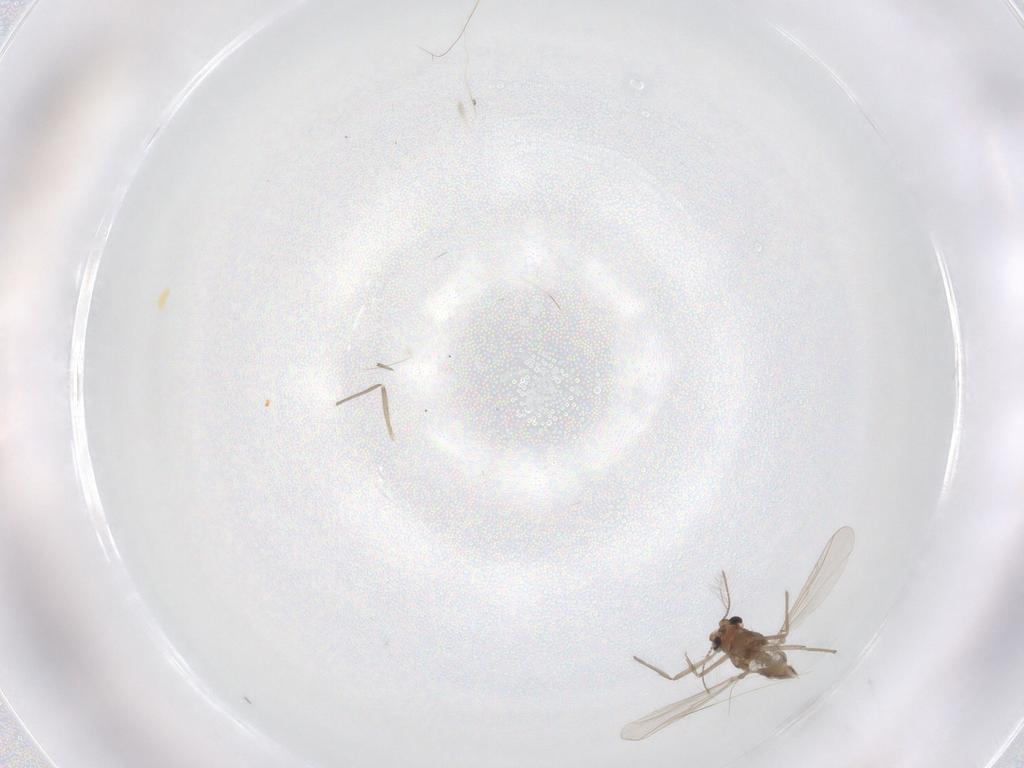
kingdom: Animalia
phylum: Arthropoda
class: Insecta
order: Diptera
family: Chironomidae
